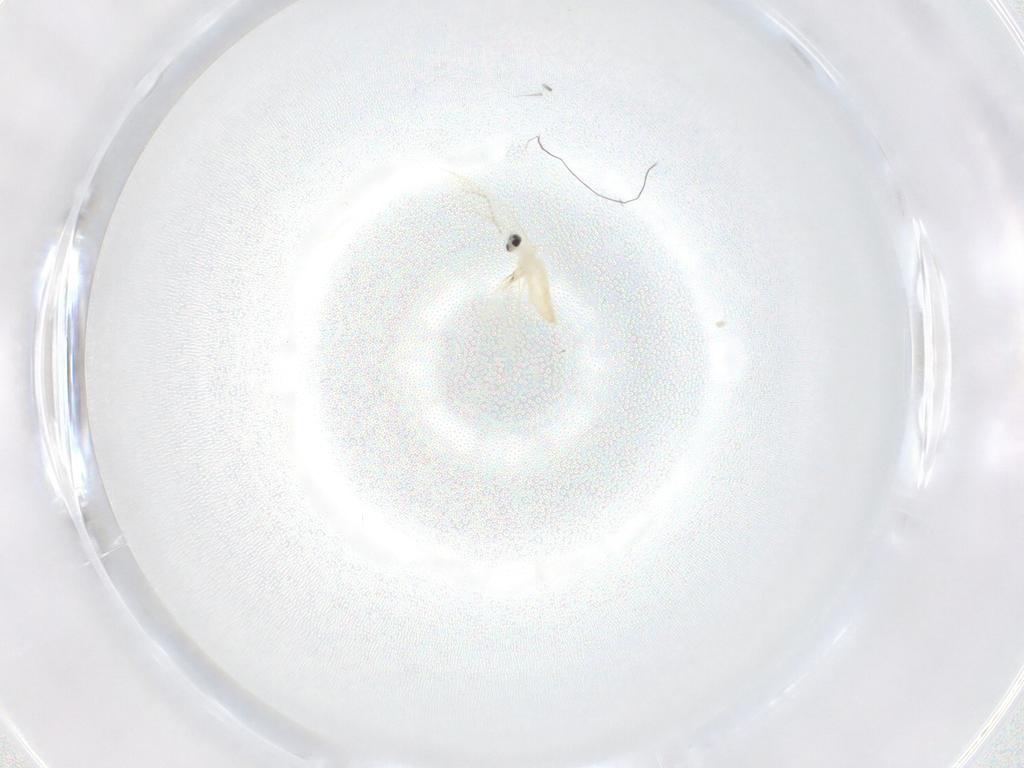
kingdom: Animalia
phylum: Arthropoda
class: Insecta
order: Diptera
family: Cecidomyiidae
